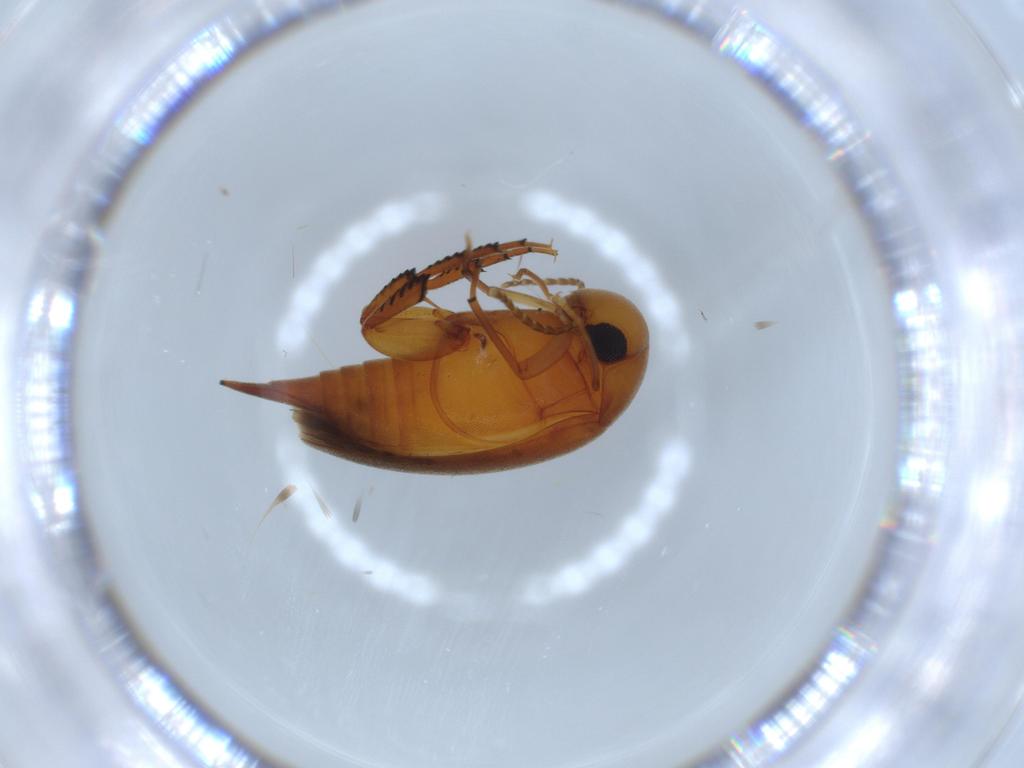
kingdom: Animalia
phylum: Arthropoda
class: Insecta
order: Coleoptera
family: Mordellidae
